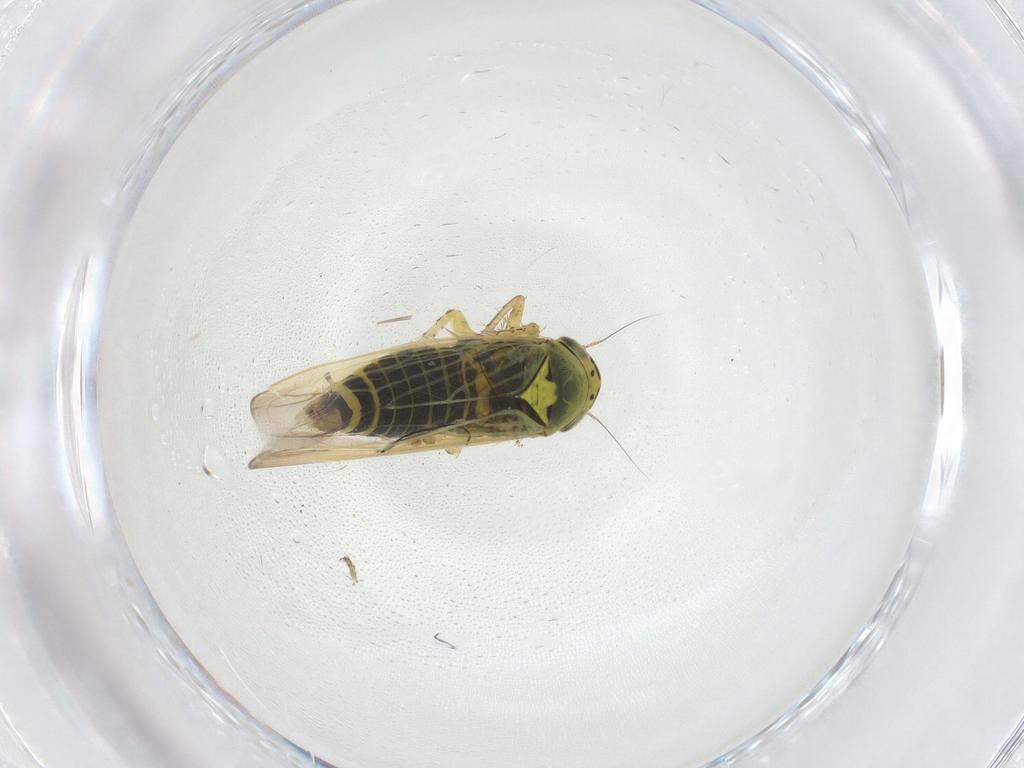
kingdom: Animalia
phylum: Arthropoda
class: Insecta
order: Hemiptera
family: Cicadellidae
